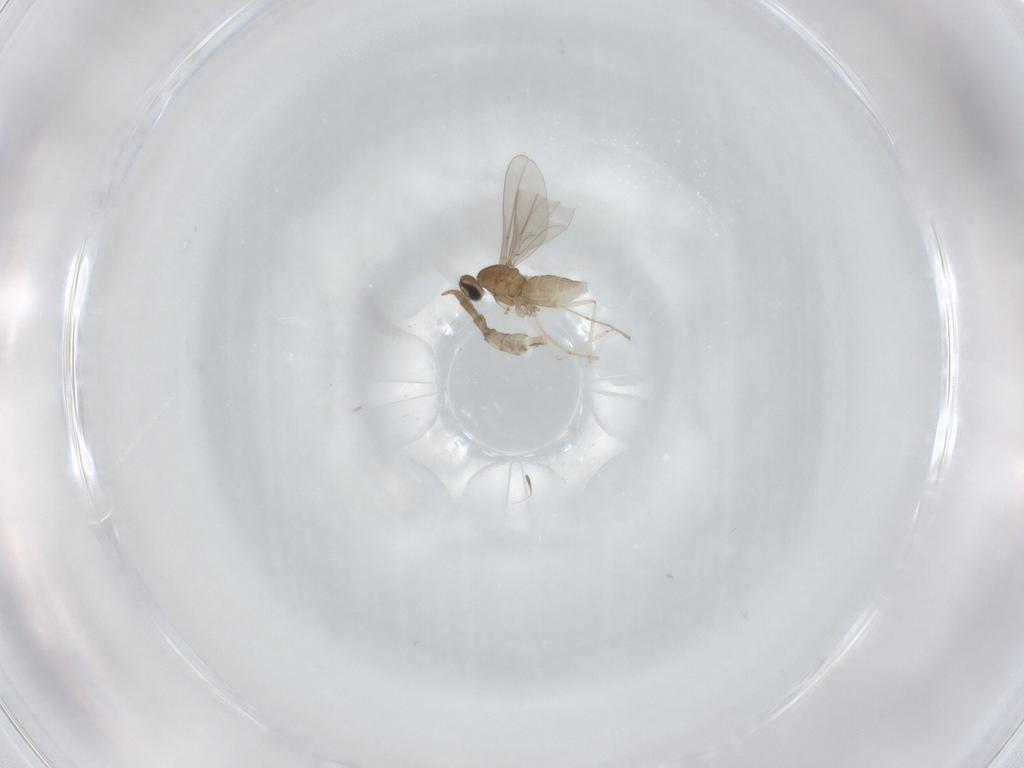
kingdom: Animalia
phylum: Arthropoda
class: Insecta
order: Diptera
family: Cecidomyiidae
